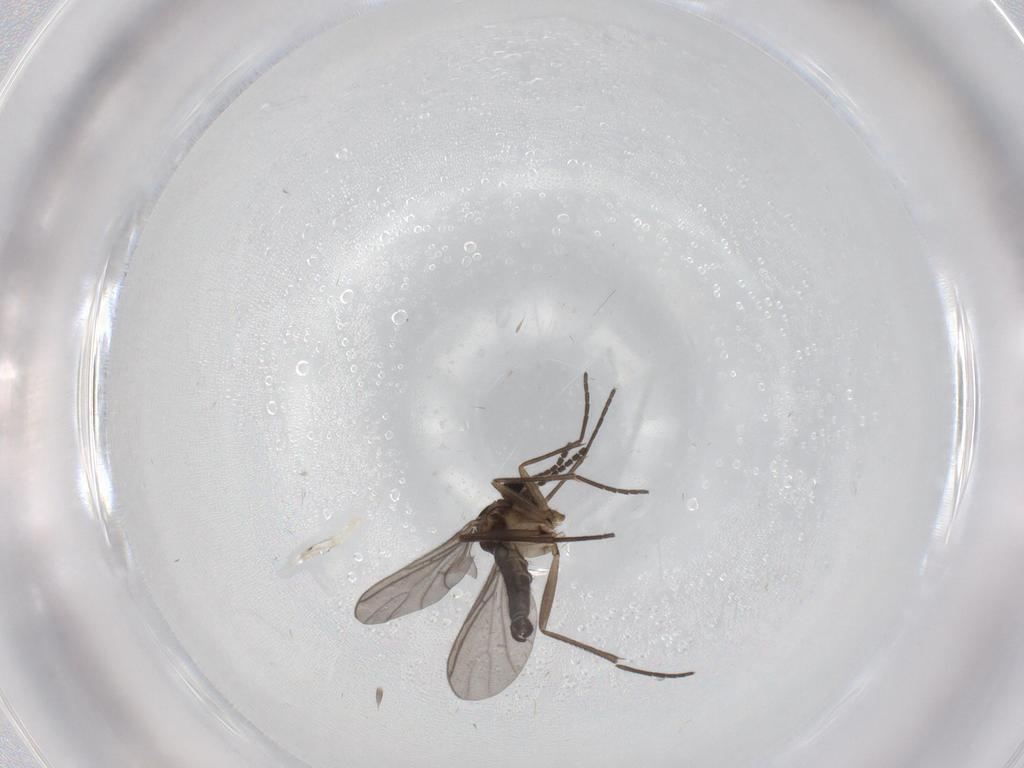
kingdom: Animalia
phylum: Arthropoda
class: Insecta
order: Diptera
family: Sciaridae
